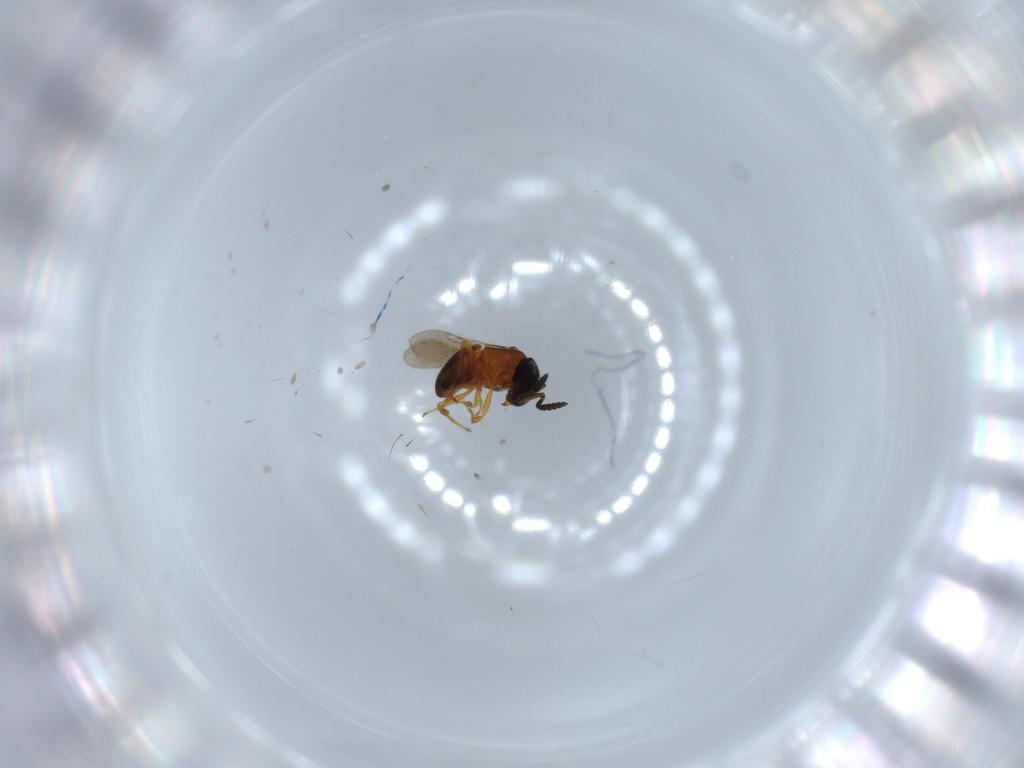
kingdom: Animalia
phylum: Arthropoda
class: Insecta
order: Hymenoptera
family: Scelionidae
